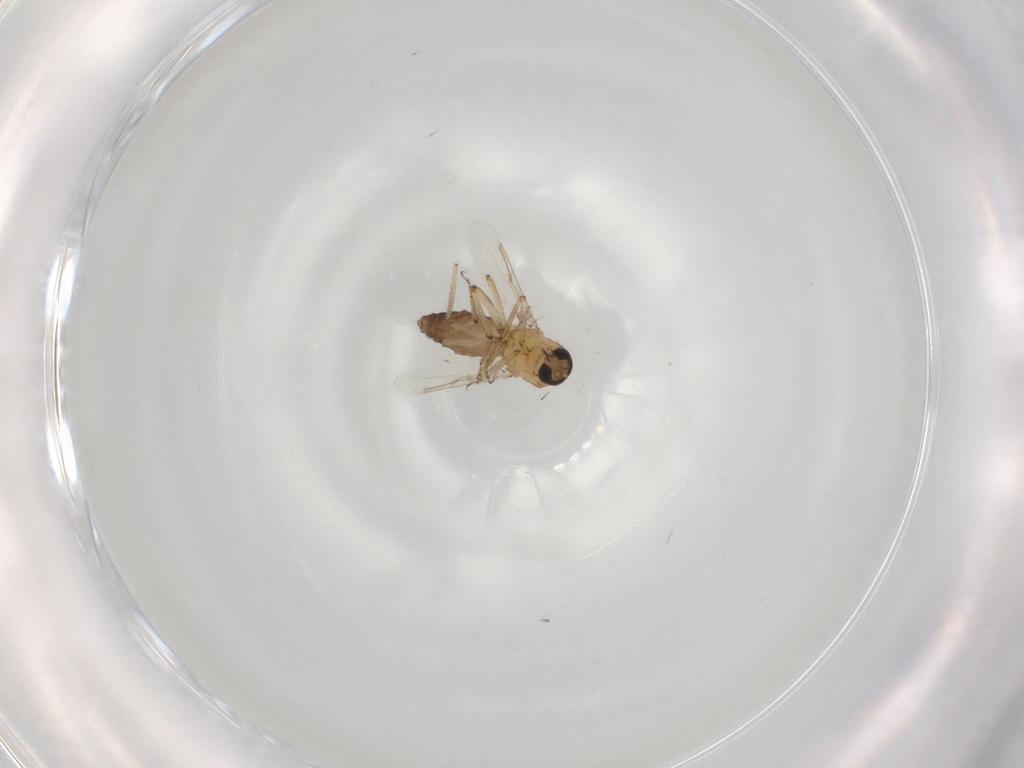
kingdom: Animalia
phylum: Arthropoda
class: Insecta
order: Diptera
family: Ceratopogonidae
